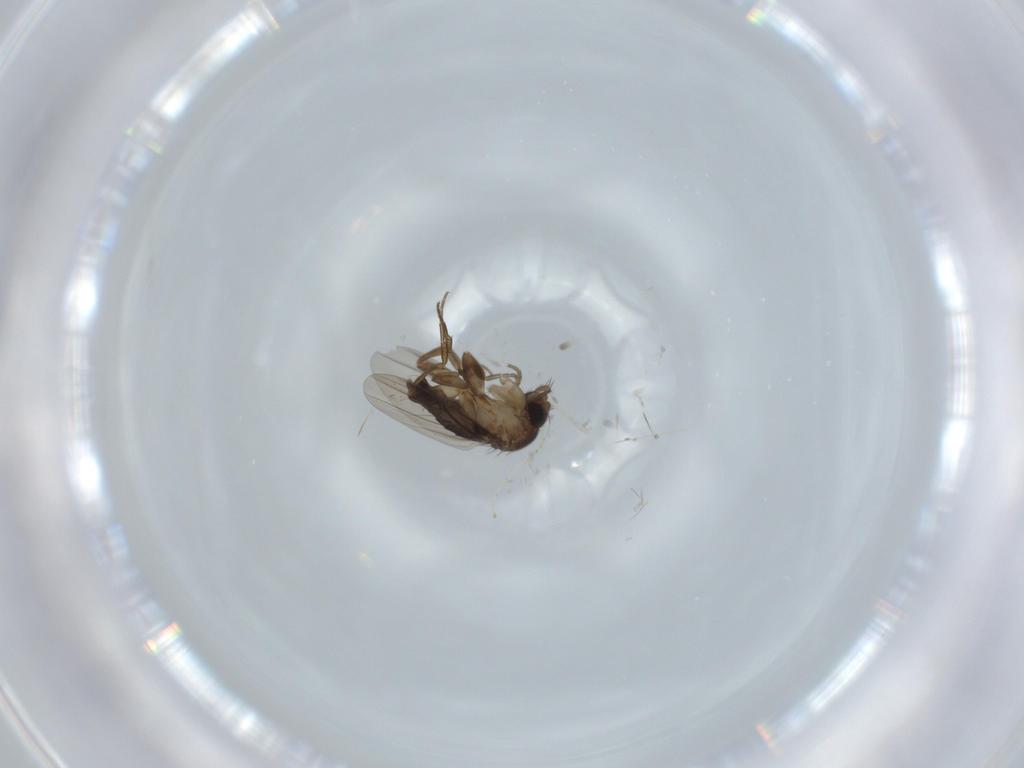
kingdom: Animalia
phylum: Arthropoda
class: Insecta
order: Diptera
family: Phoridae
